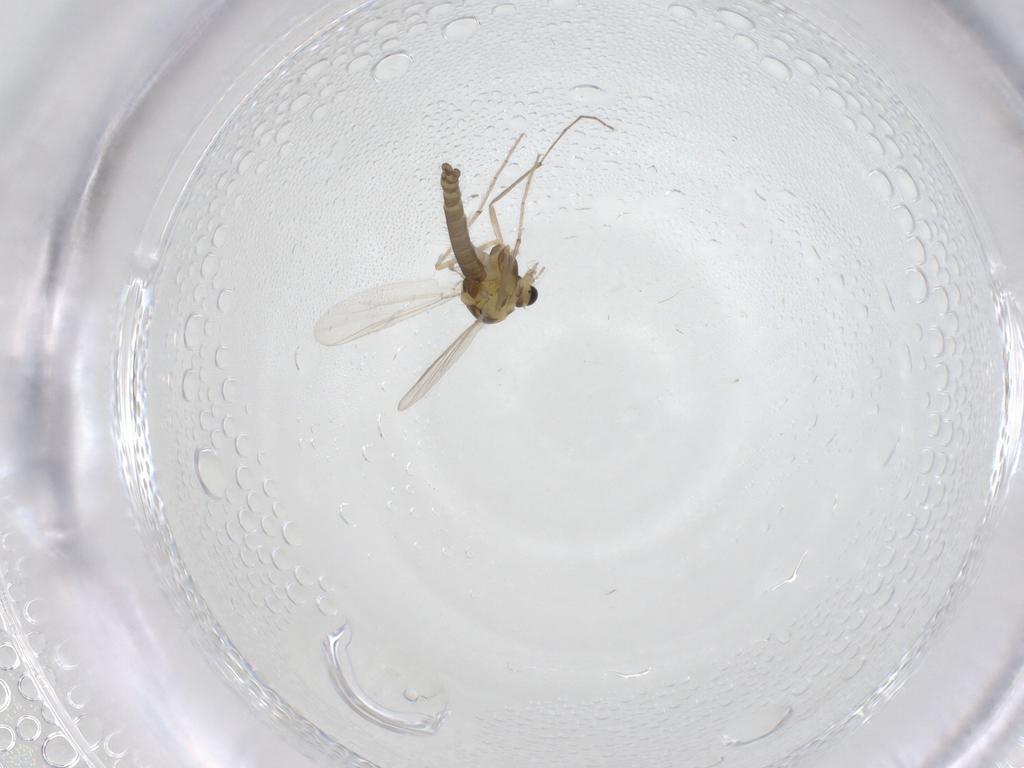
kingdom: Animalia
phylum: Arthropoda
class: Insecta
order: Diptera
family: Chironomidae
